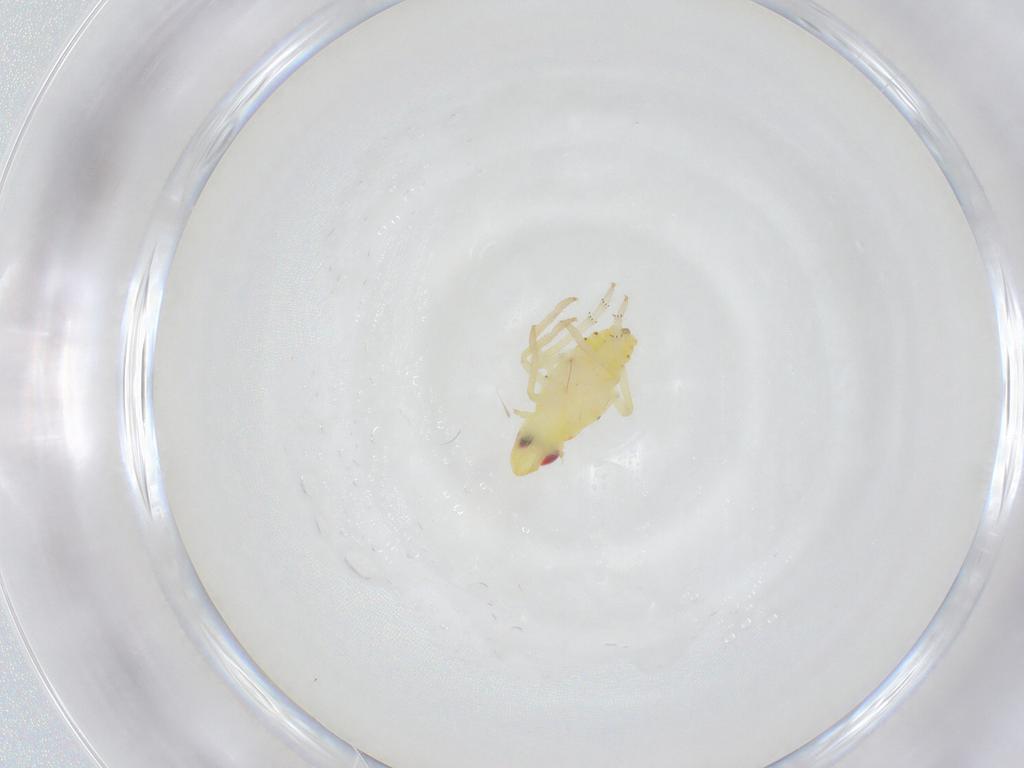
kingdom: Animalia
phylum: Arthropoda
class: Insecta
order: Hemiptera
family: Tropiduchidae
